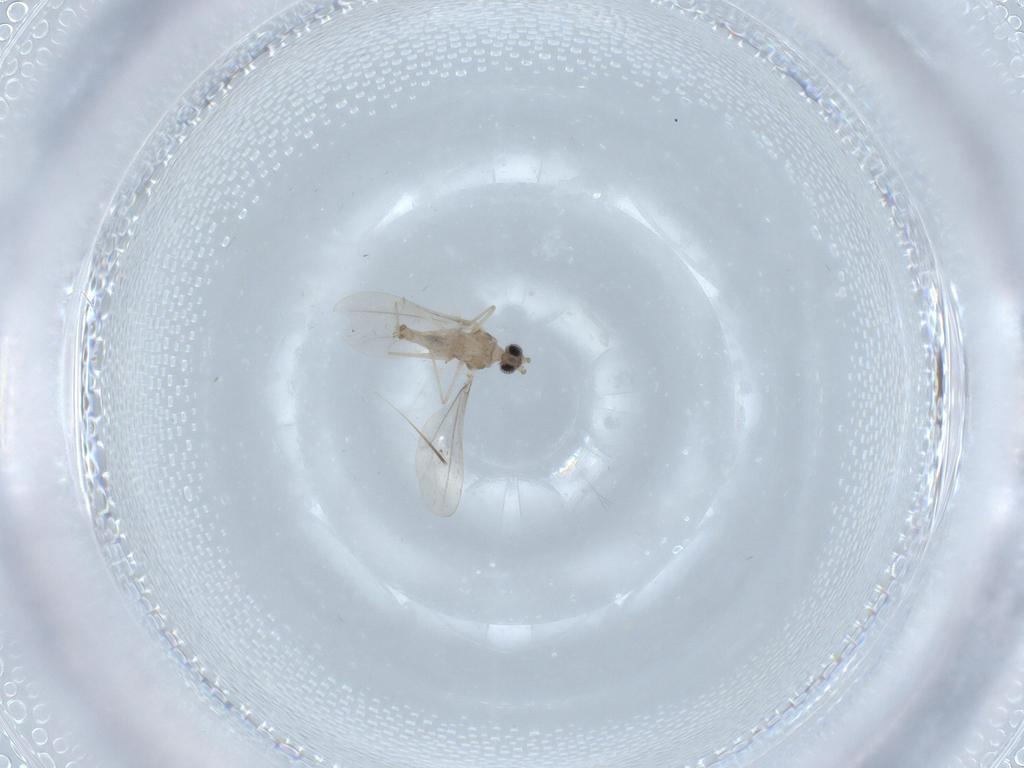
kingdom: Animalia
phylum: Arthropoda
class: Insecta
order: Diptera
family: Cecidomyiidae
